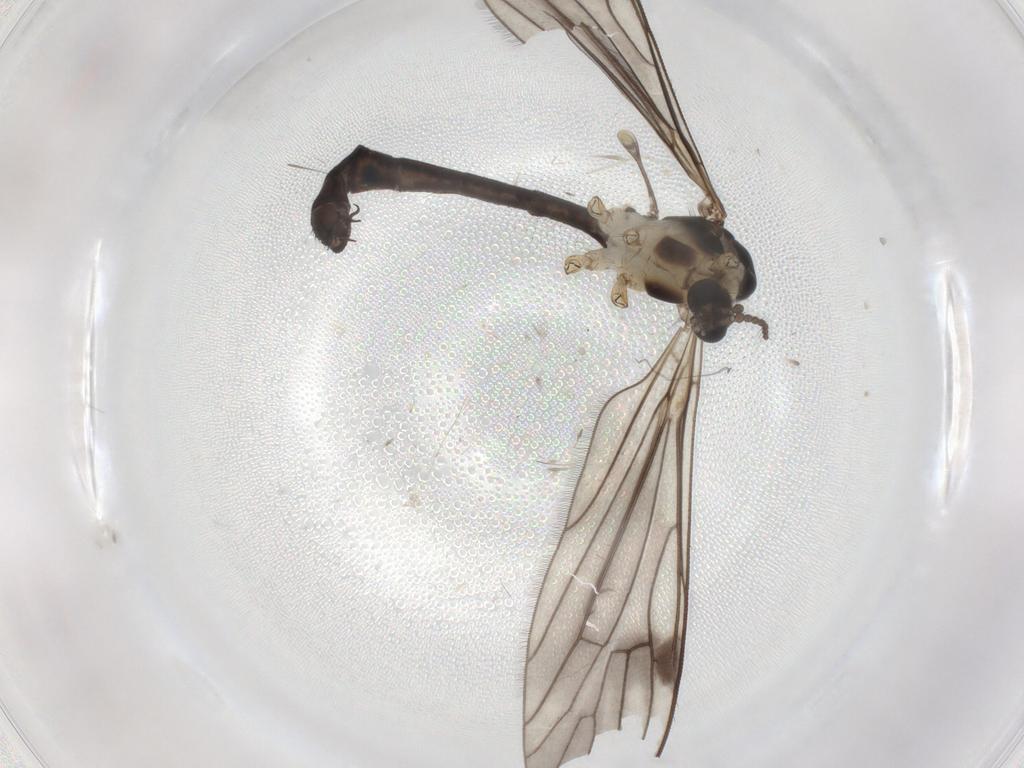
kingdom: Animalia
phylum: Arthropoda
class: Insecta
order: Diptera
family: Limoniidae
